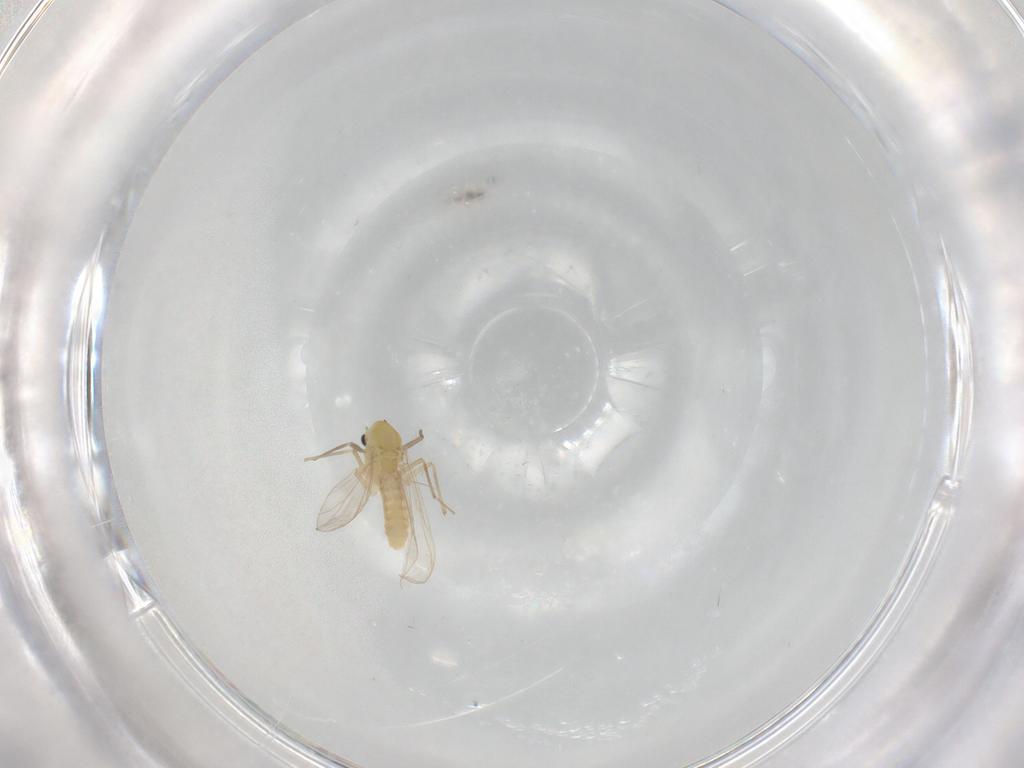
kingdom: Animalia
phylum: Arthropoda
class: Insecta
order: Diptera
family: Chironomidae
